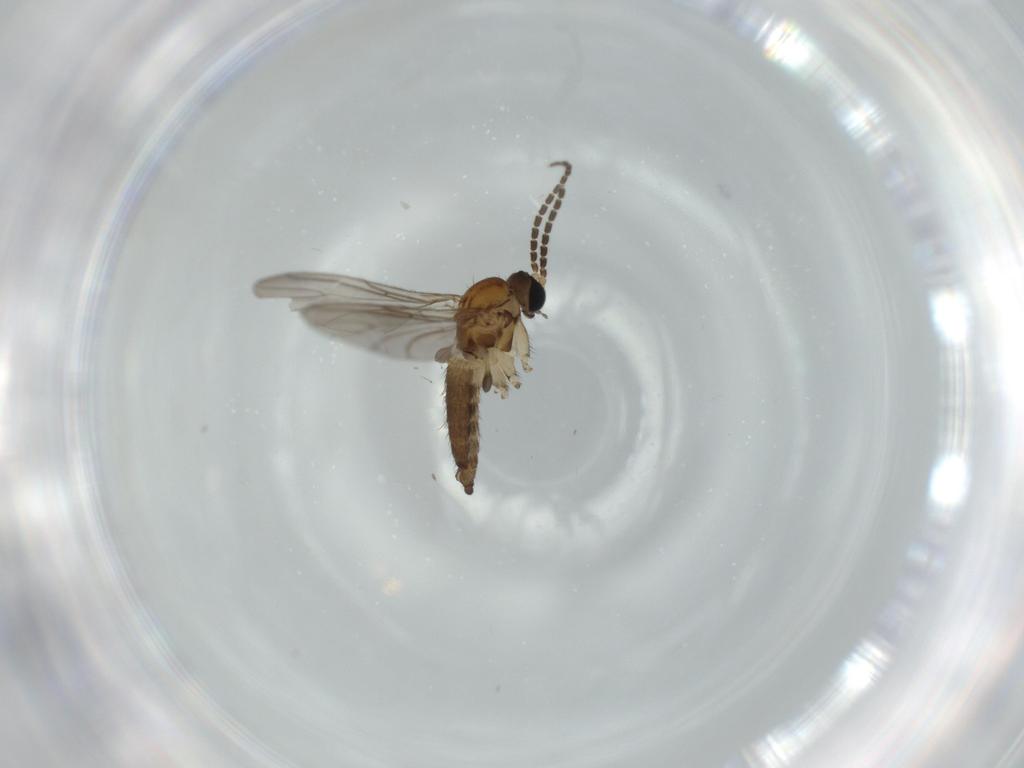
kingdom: Animalia
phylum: Arthropoda
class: Insecta
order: Diptera
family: Sciaridae
